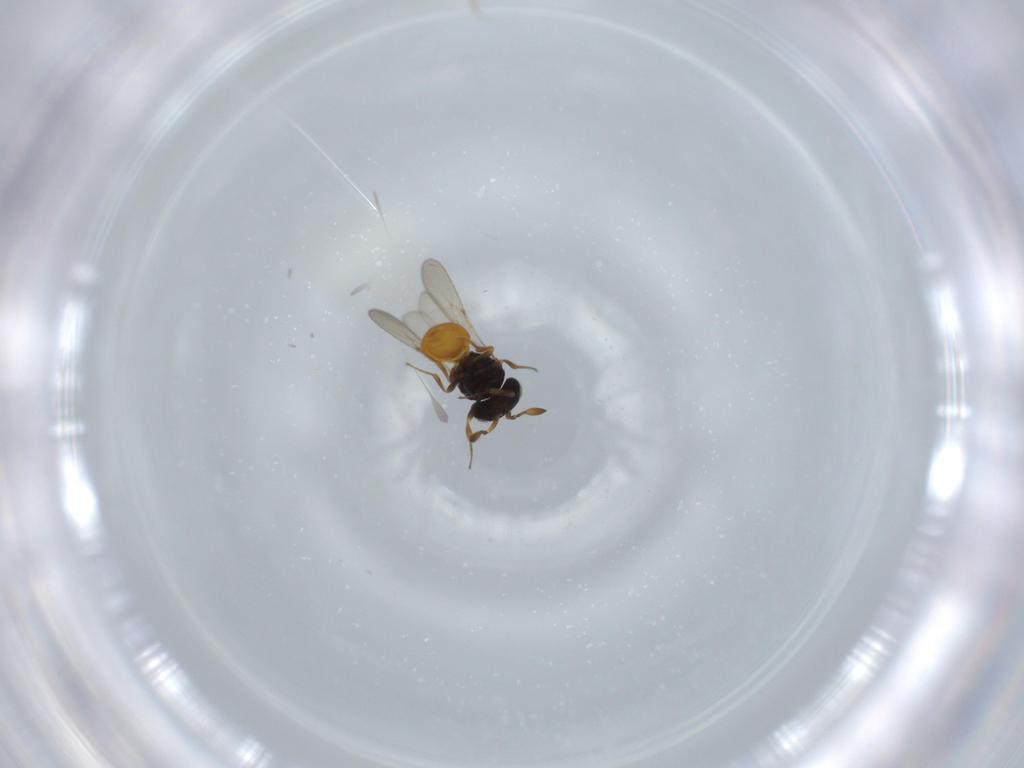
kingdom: Animalia
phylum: Arthropoda
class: Insecta
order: Hymenoptera
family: Scelionidae
